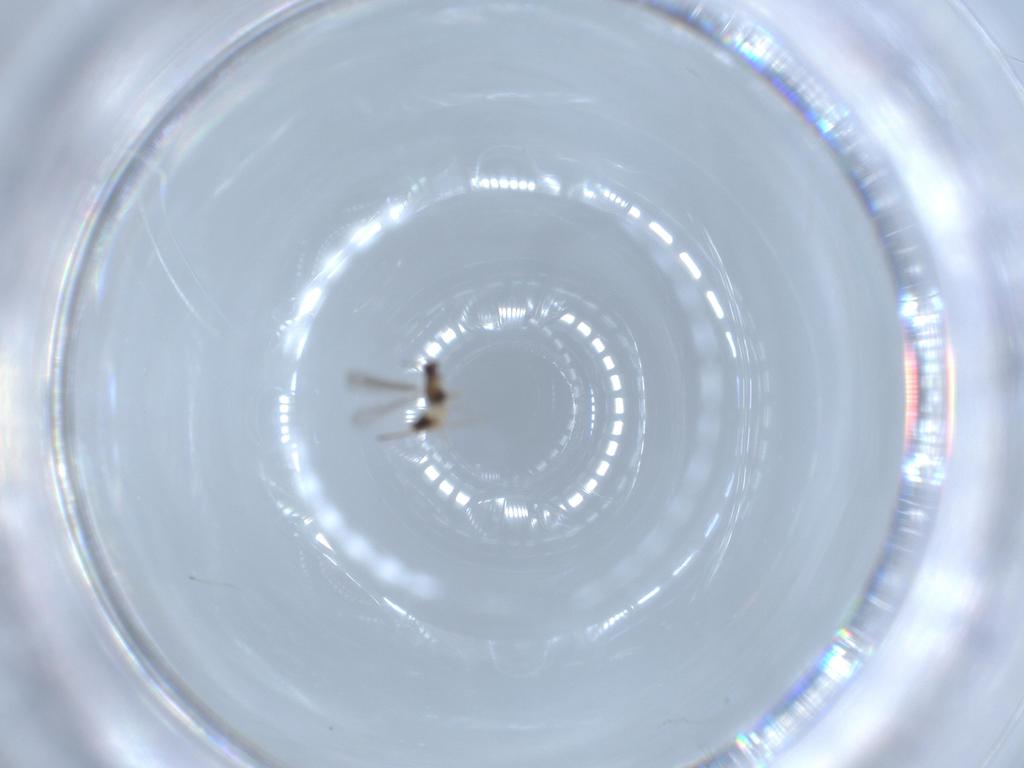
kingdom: Animalia
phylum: Arthropoda
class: Insecta
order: Hymenoptera
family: Mymaridae
